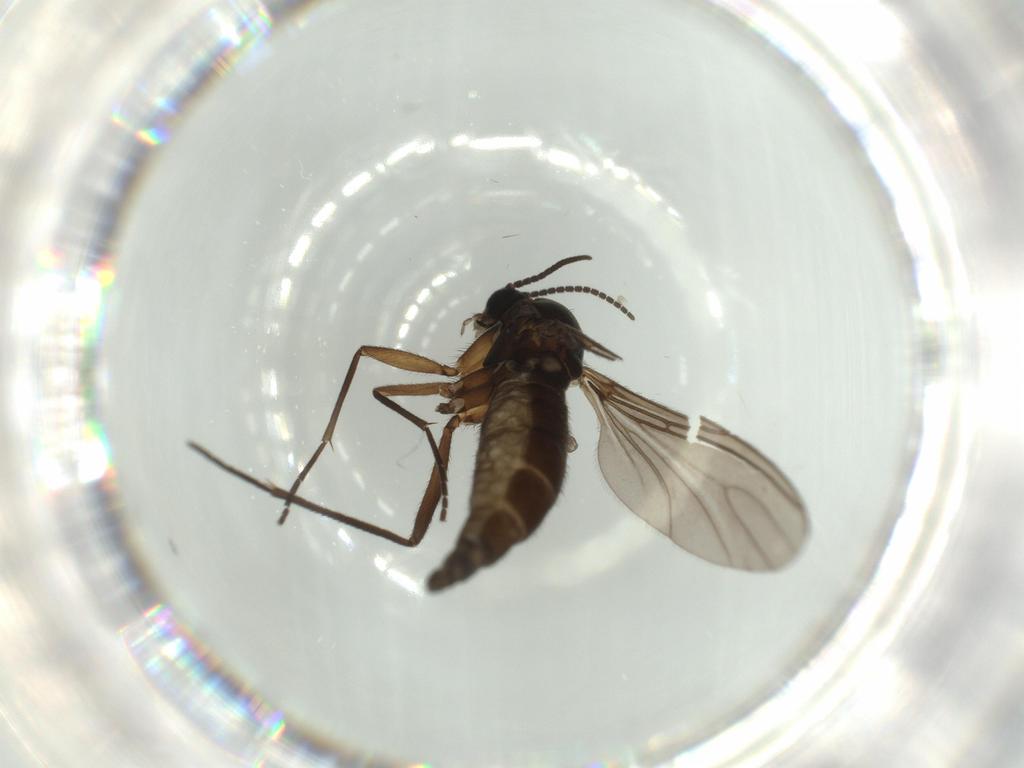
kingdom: Animalia
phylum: Arthropoda
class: Insecta
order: Diptera
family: Sciaridae
